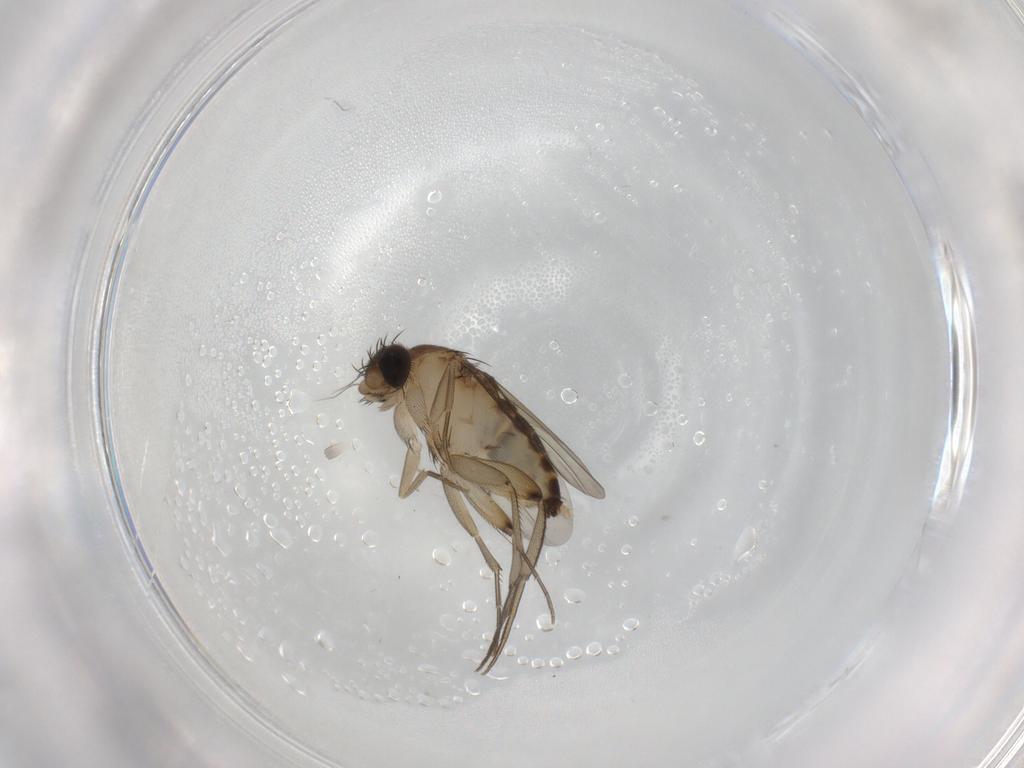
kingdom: Animalia
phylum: Arthropoda
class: Insecta
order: Diptera
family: Phoridae
